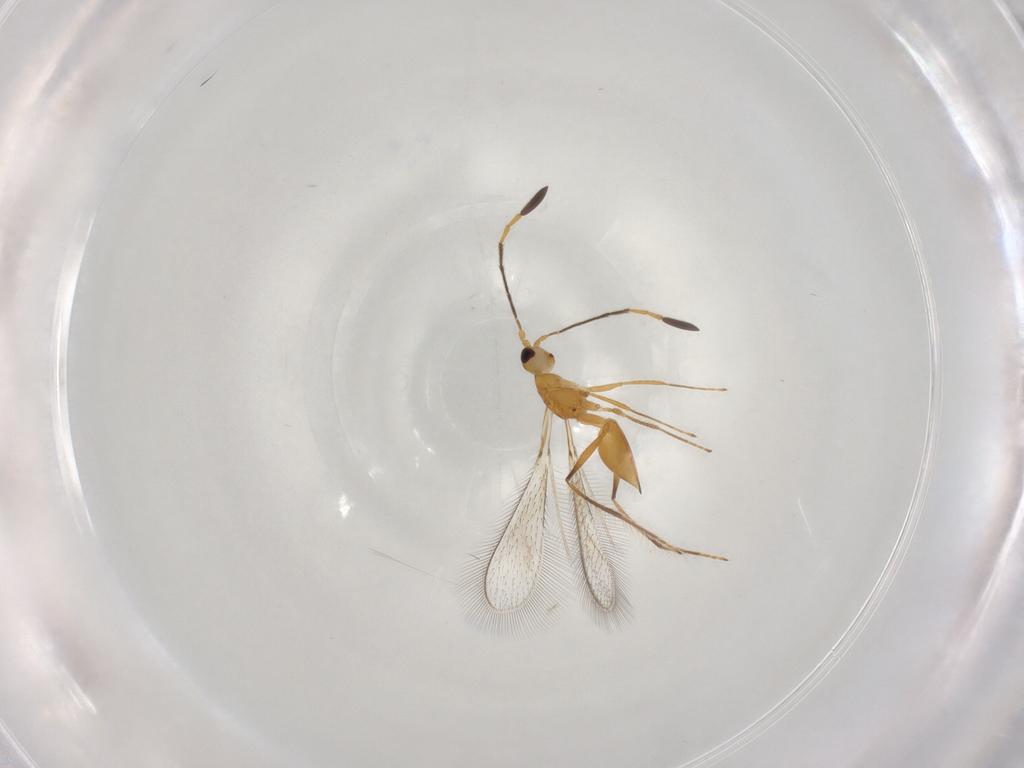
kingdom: Animalia
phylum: Arthropoda
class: Insecta
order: Hymenoptera
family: Mymaridae
